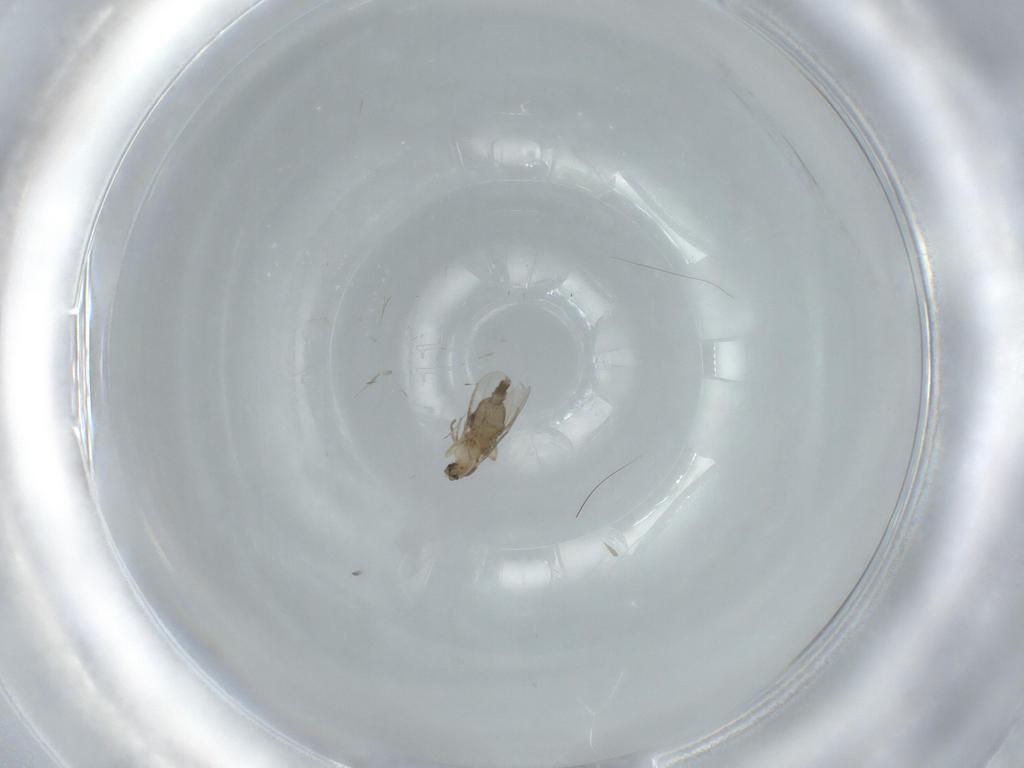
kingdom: Animalia
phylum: Arthropoda
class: Insecta
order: Diptera
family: Phoridae
